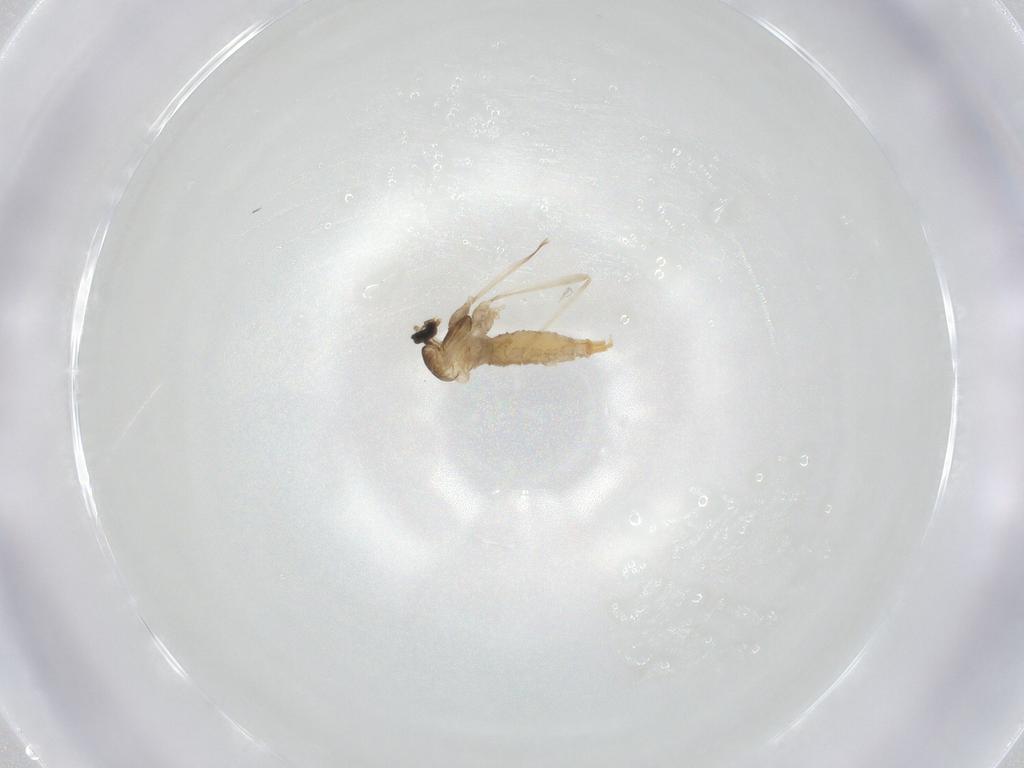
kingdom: Animalia
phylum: Arthropoda
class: Insecta
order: Diptera
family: Cecidomyiidae
